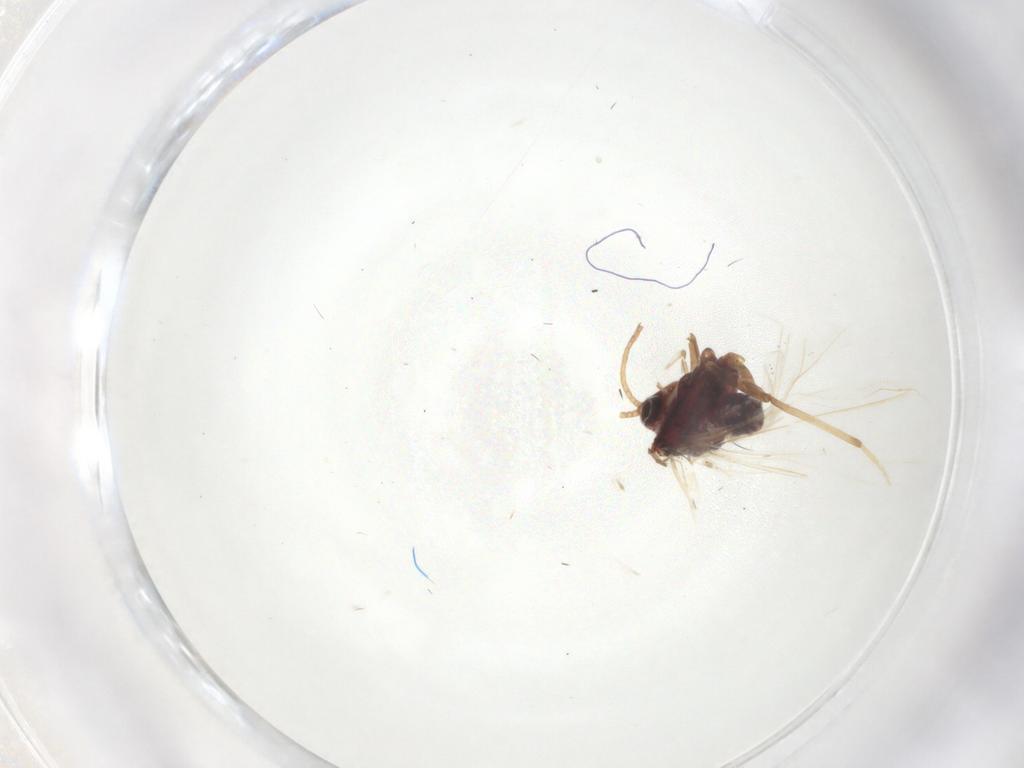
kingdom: Animalia
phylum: Arthropoda
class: Insecta
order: Neuroptera
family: Coniopterygidae
